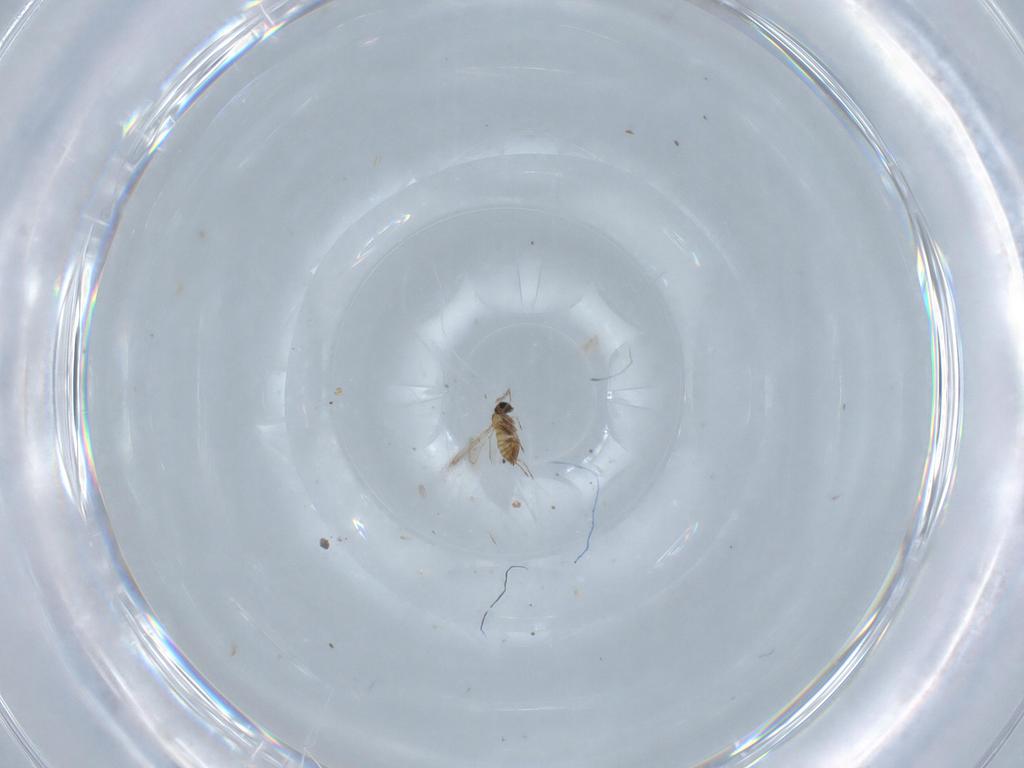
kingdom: Animalia
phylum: Arthropoda
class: Insecta
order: Hymenoptera
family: Trichogrammatidae
